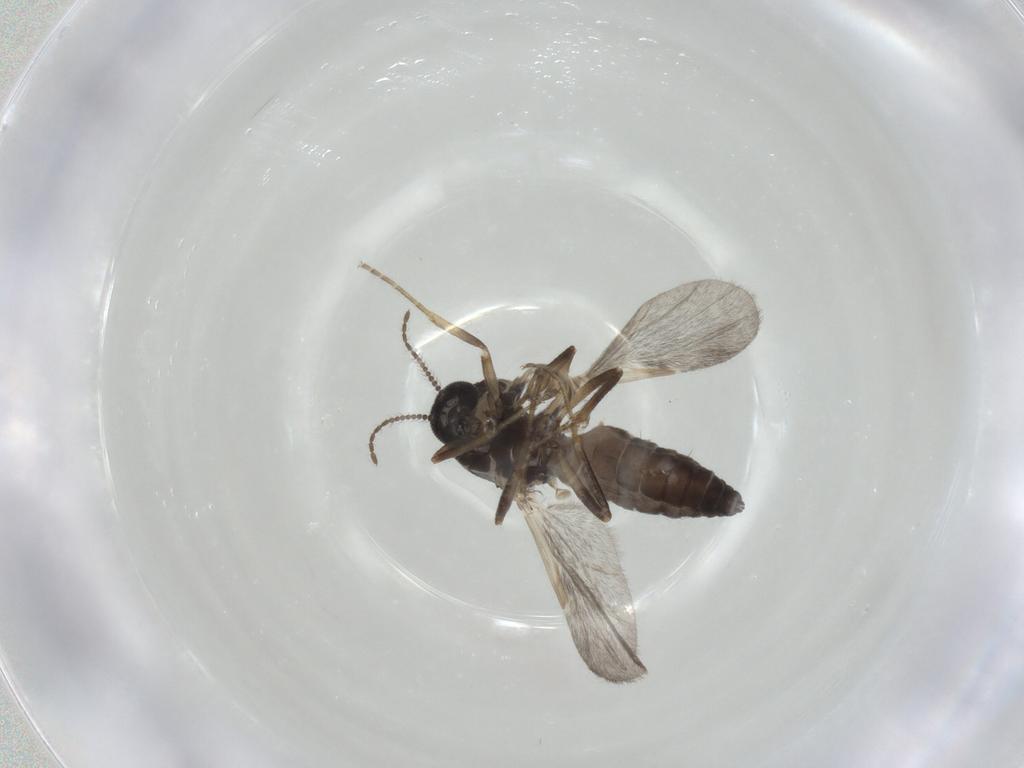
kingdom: Animalia
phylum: Arthropoda
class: Insecta
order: Diptera
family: Ceratopogonidae
